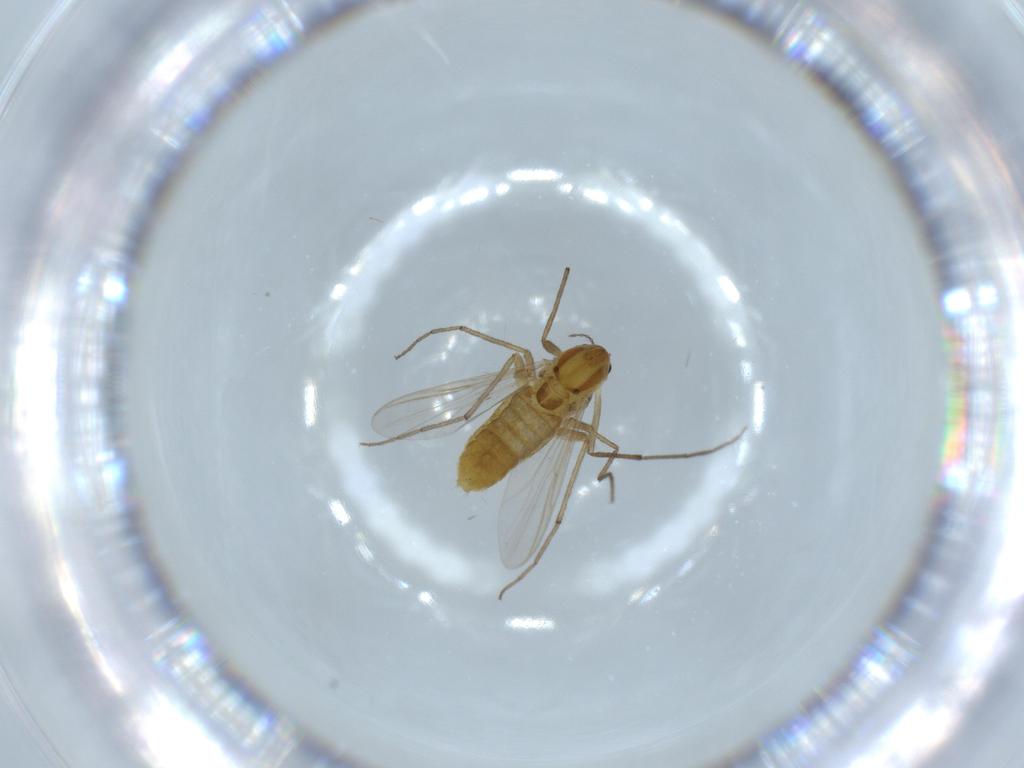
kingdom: Animalia
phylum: Arthropoda
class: Insecta
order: Diptera
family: Chironomidae
